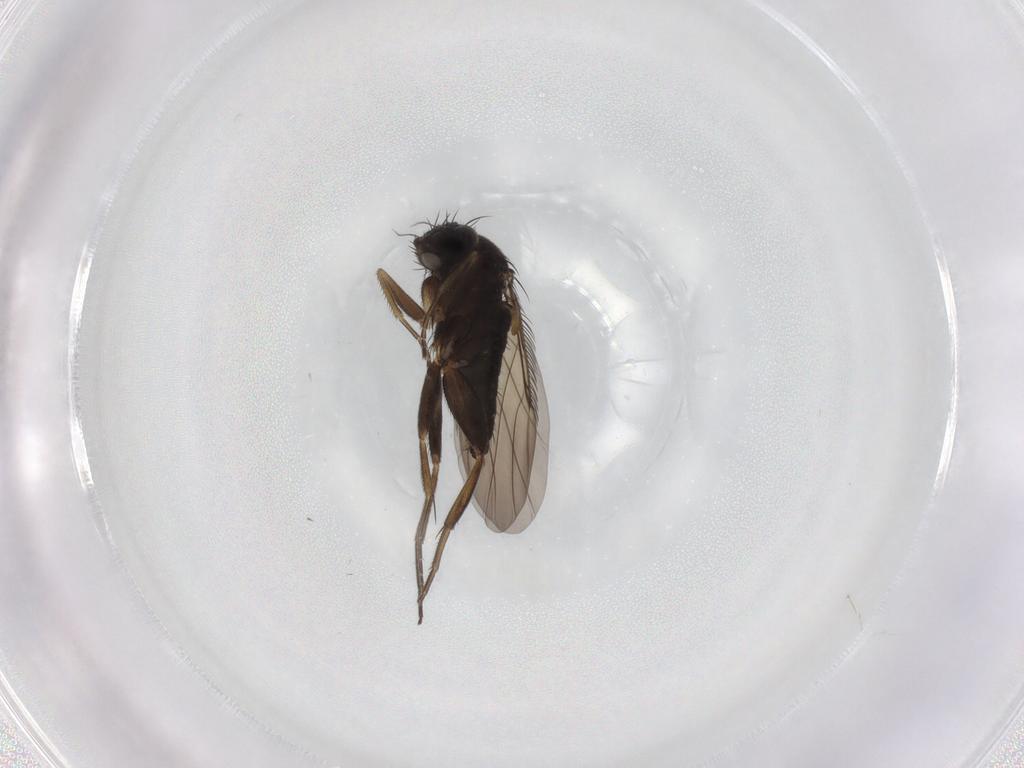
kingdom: Animalia
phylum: Arthropoda
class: Insecta
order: Diptera
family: Phoridae
